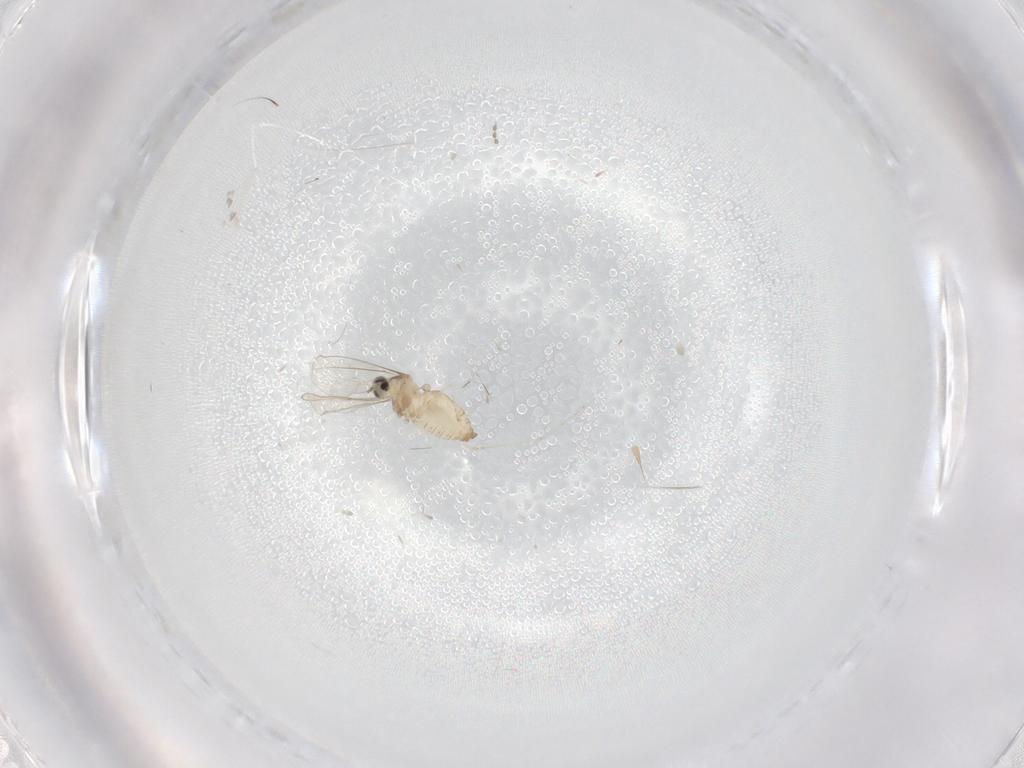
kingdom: Animalia
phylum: Arthropoda
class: Insecta
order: Diptera
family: Cecidomyiidae
